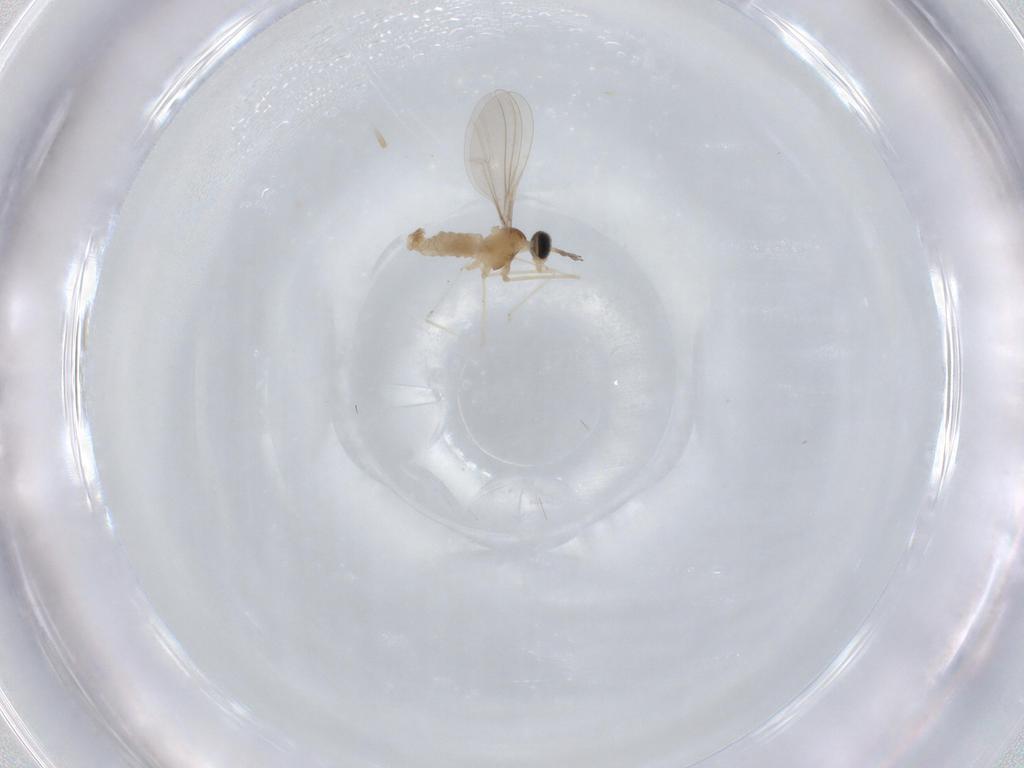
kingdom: Animalia
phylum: Arthropoda
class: Insecta
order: Diptera
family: Cecidomyiidae
